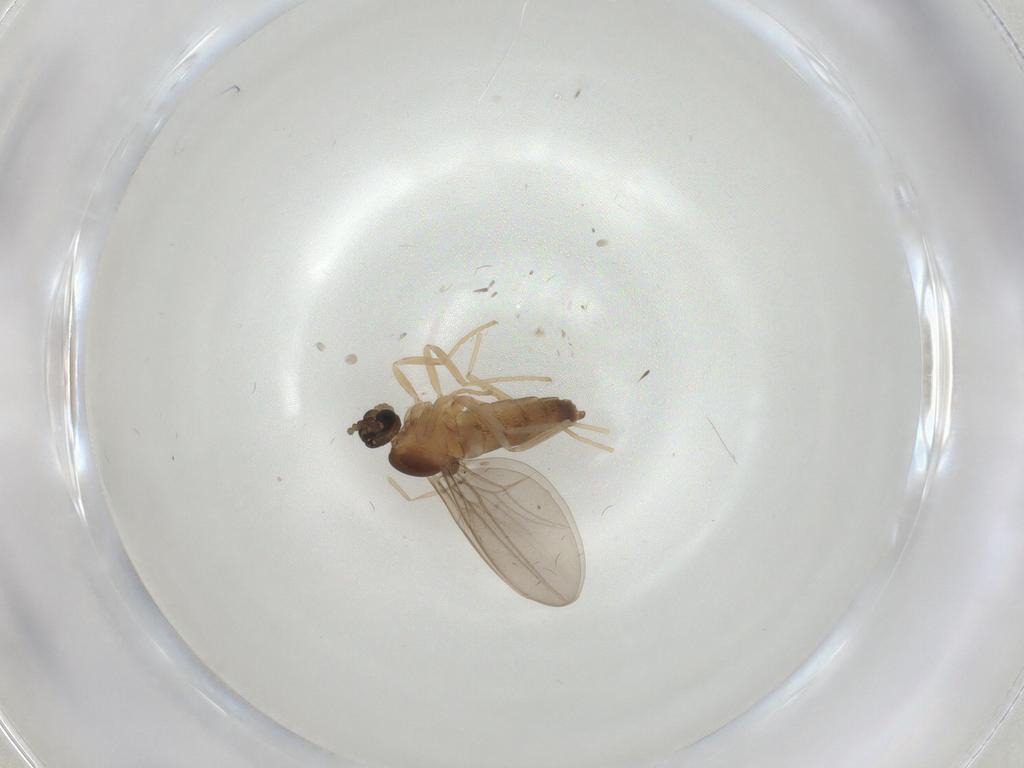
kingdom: Animalia
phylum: Arthropoda
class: Insecta
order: Diptera
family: Cecidomyiidae
